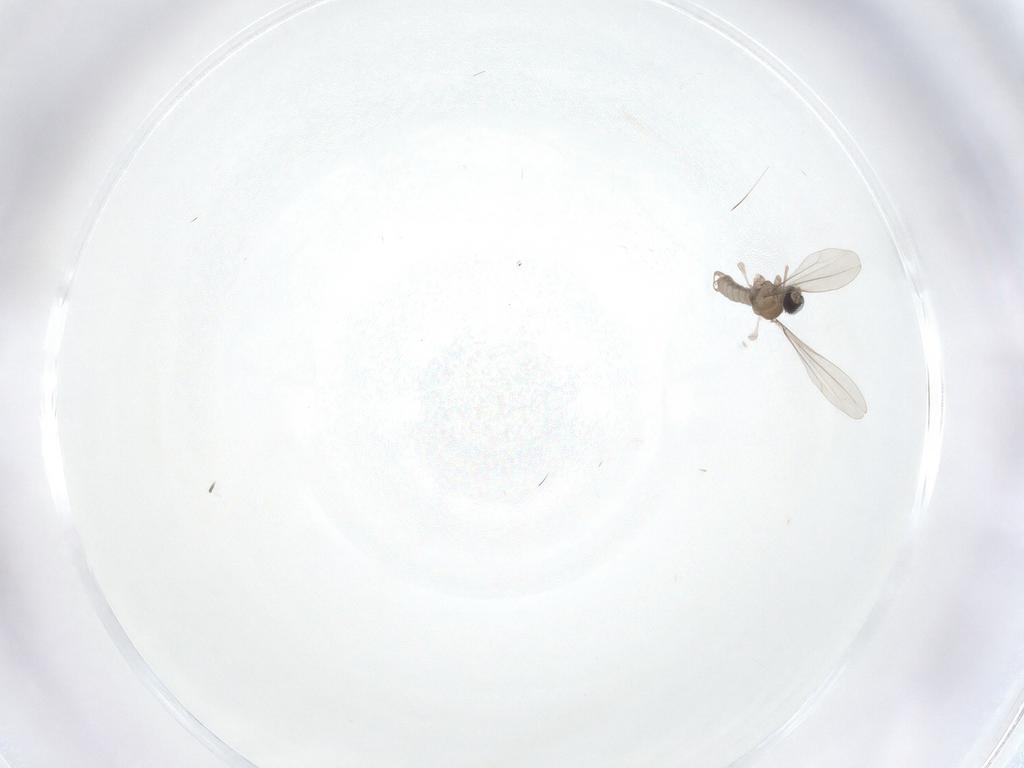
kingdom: Animalia
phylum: Arthropoda
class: Insecta
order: Diptera
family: Cecidomyiidae
